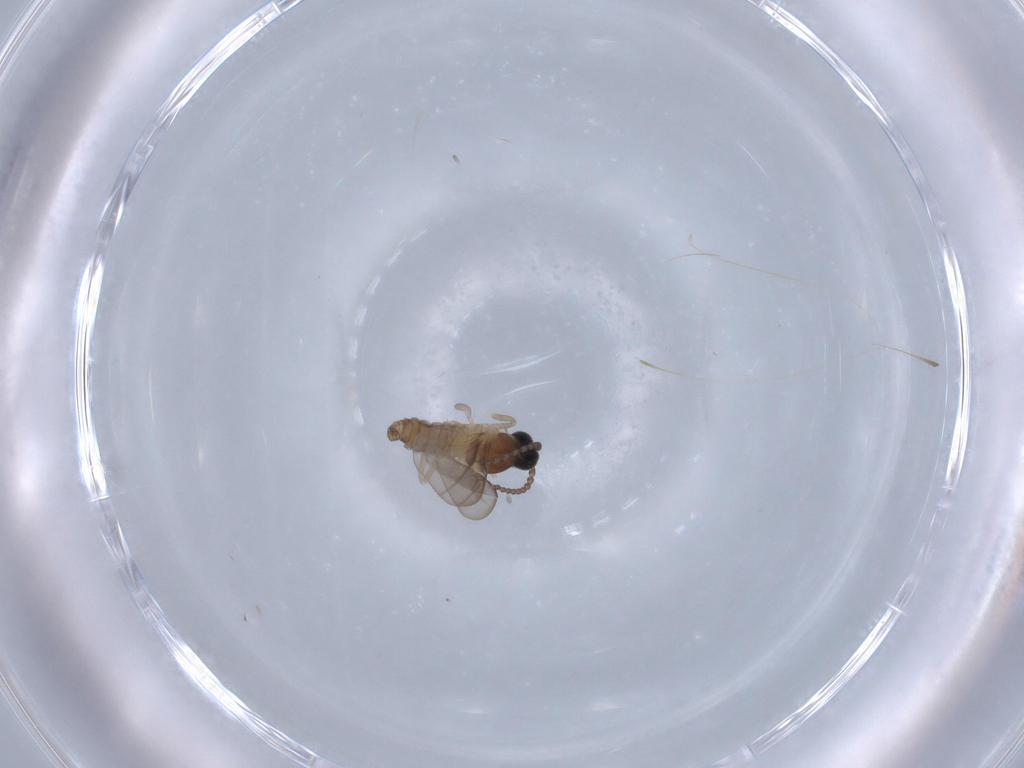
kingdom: Animalia
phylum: Arthropoda
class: Insecta
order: Diptera
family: Cecidomyiidae
